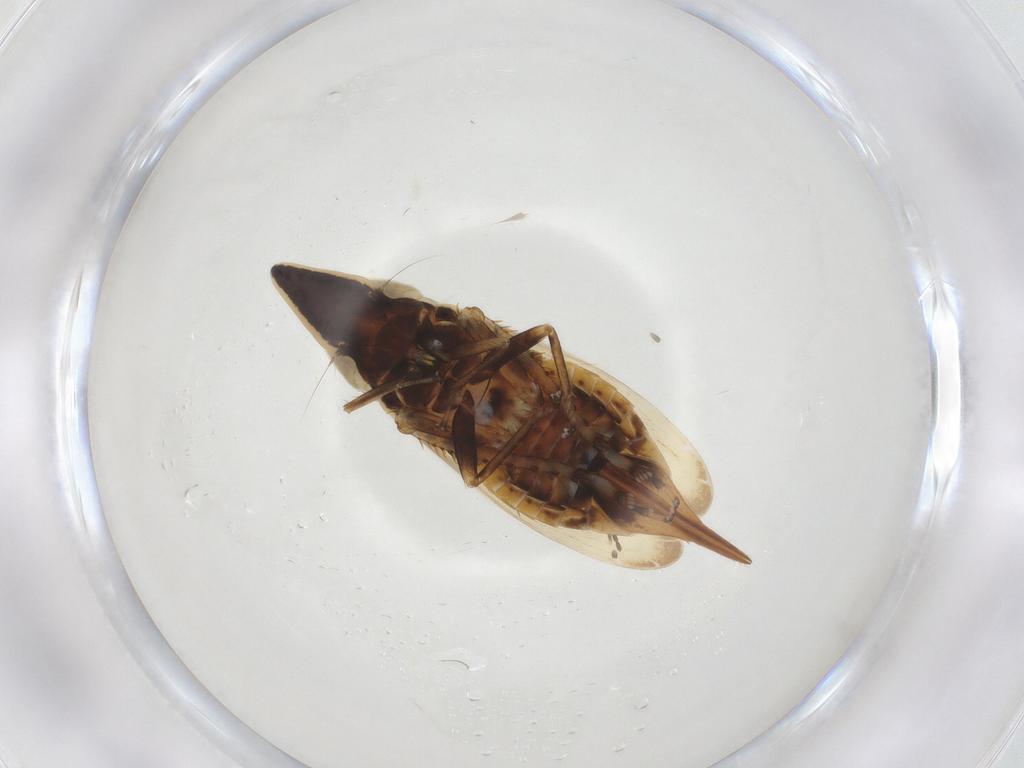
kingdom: Animalia
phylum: Arthropoda
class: Insecta
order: Hemiptera
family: Cicadellidae
